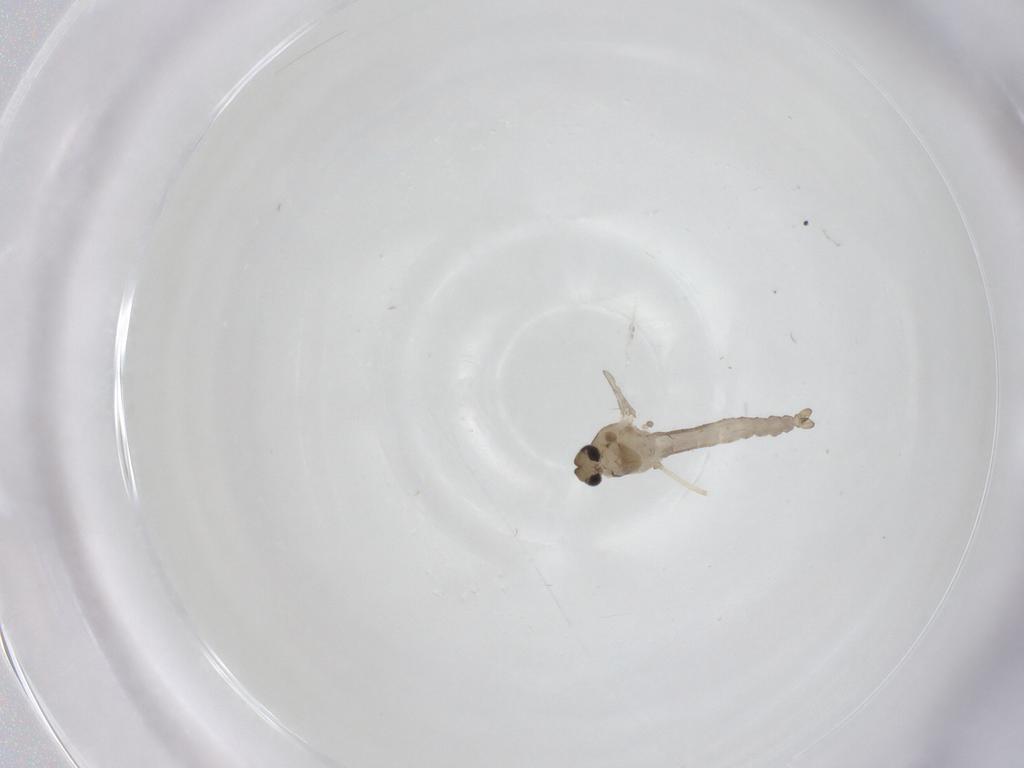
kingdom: Animalia
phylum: Arthropoda
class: Insecta
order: Diptera
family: Ceratopogonidae
